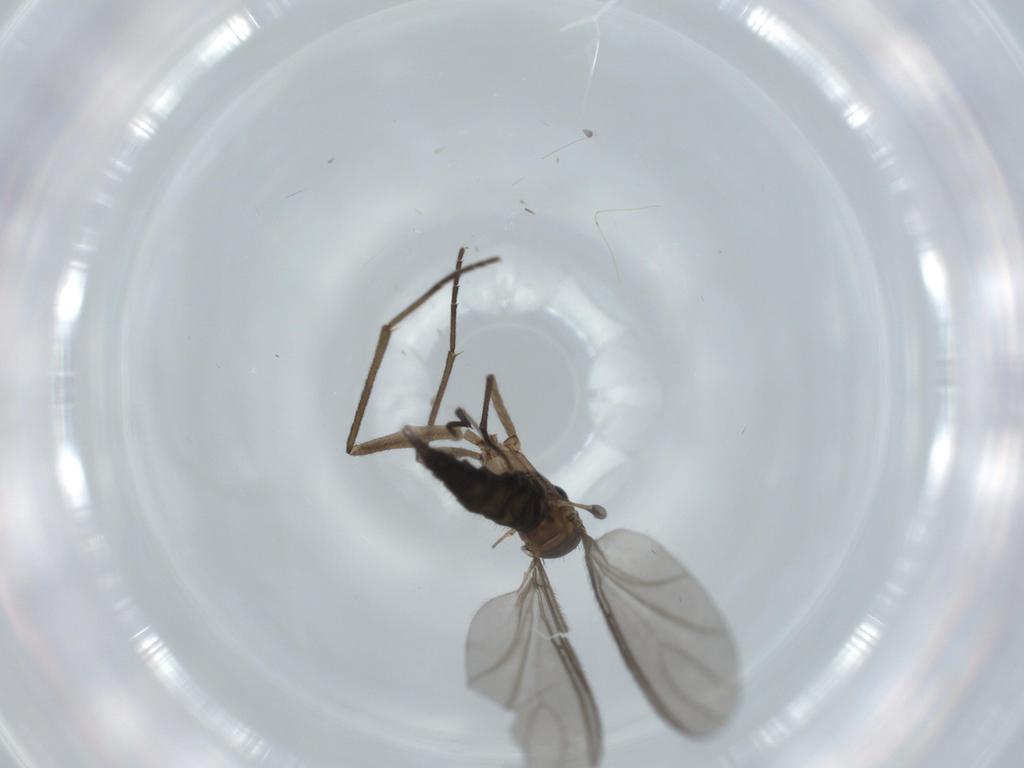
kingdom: Animalia
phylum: Arthropoda
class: Insecta
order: Diptera
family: Sciaridae
